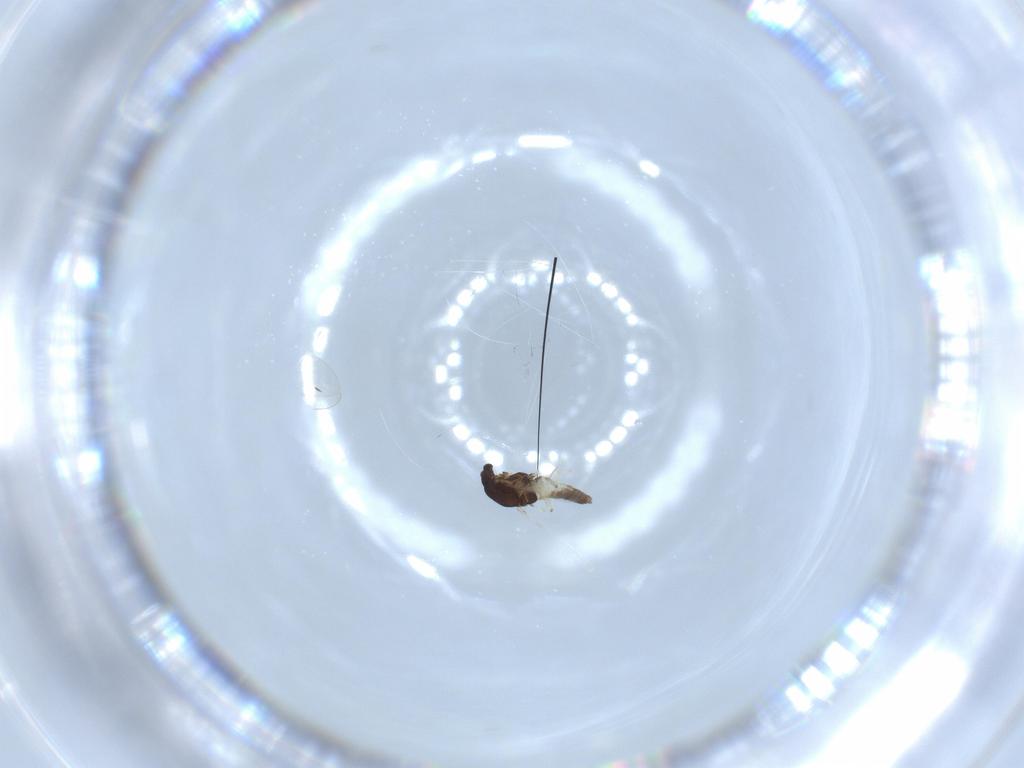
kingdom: Animalia
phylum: Arthropoda
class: Insecta
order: Diptera
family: Chironomidae
